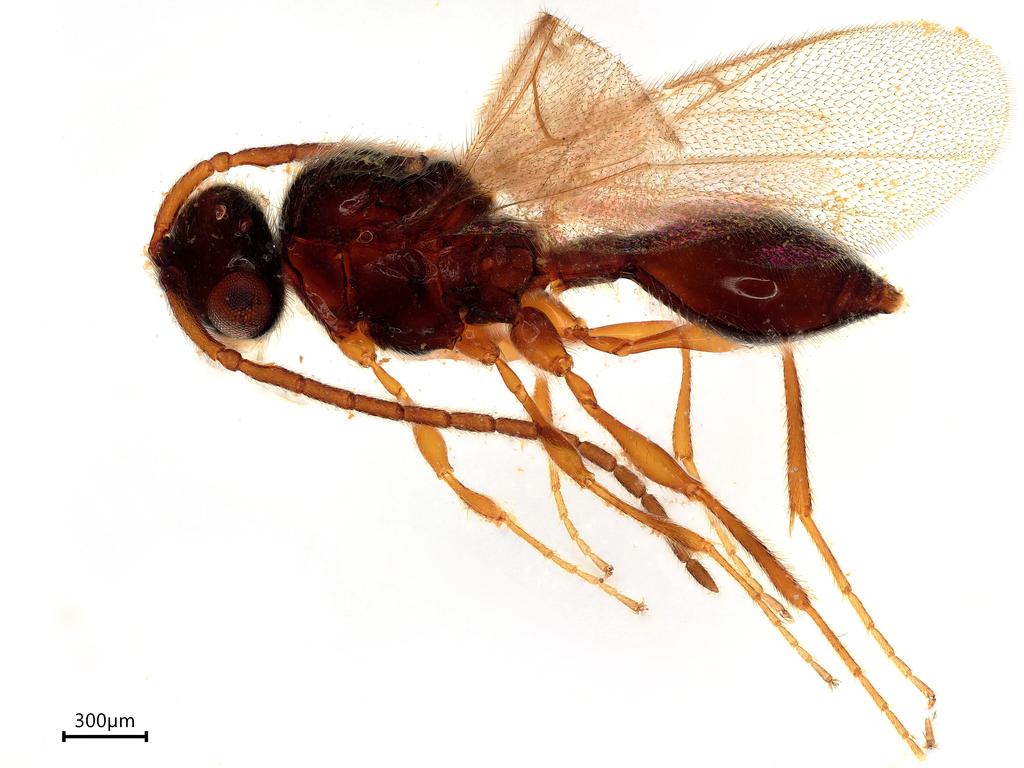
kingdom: Animalia
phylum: Arthropoda
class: Insecta
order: Hymenoptera
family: Diapriidae
